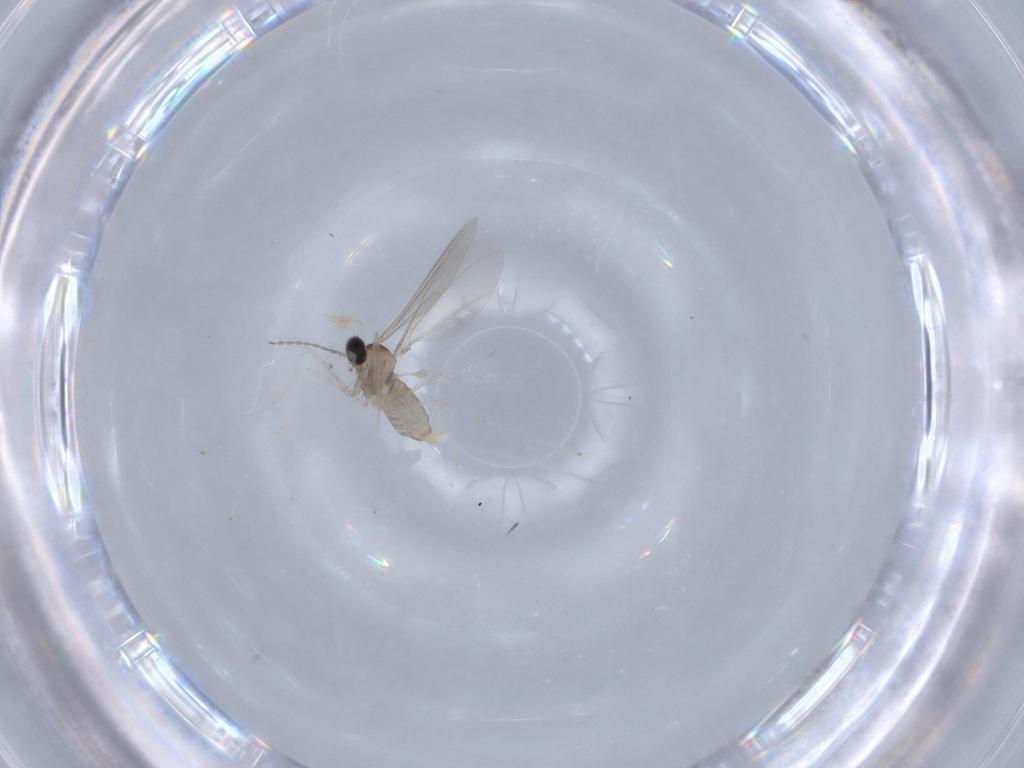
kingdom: Animalia
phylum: Arthropoda
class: Insecta
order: Diptera
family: Cecidomyiidae
